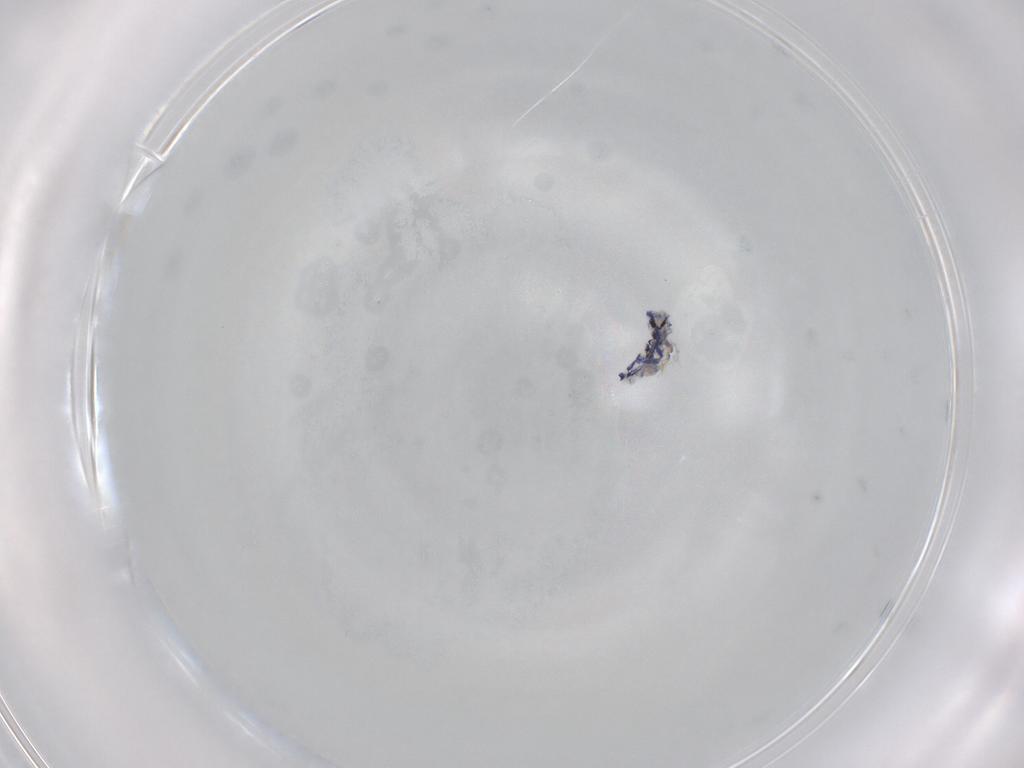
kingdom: Animalia
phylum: Arthropoda
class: Collembola
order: Entomobryomorpha
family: Entomobryidae
